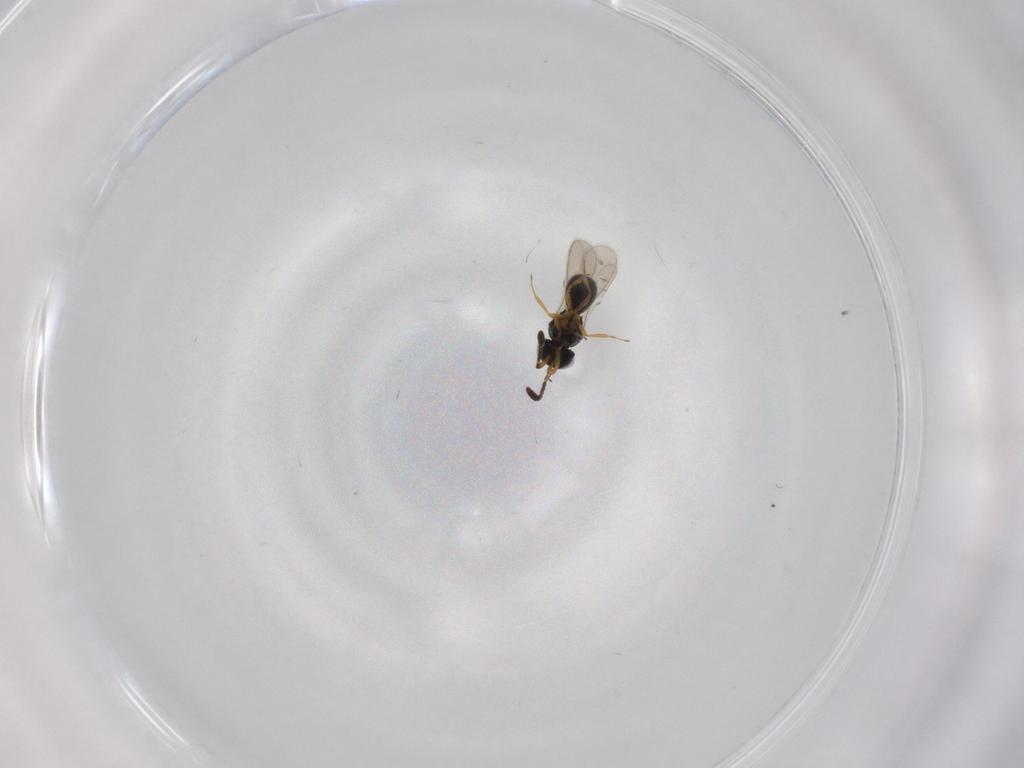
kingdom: Animalia
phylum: Arthropoda
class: Insecta
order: Hymenoptera
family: Scelionidae
